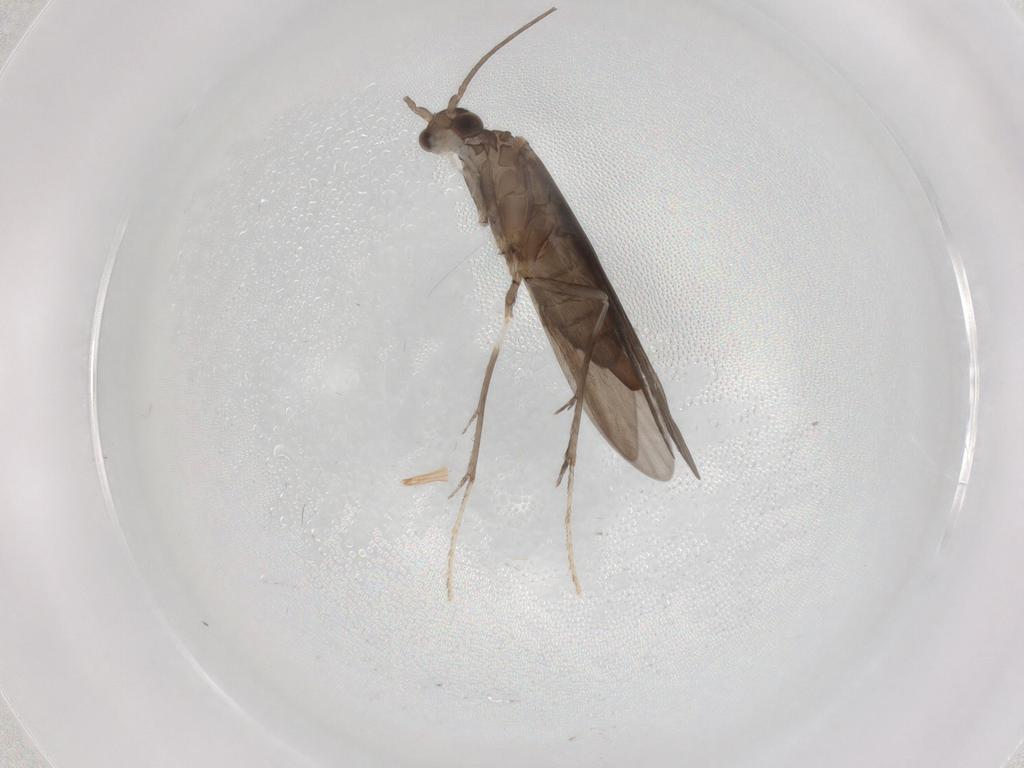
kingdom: Animalia
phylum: Arthropoda
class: Insecta
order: Trichoptera
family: Xiphocentronidae
